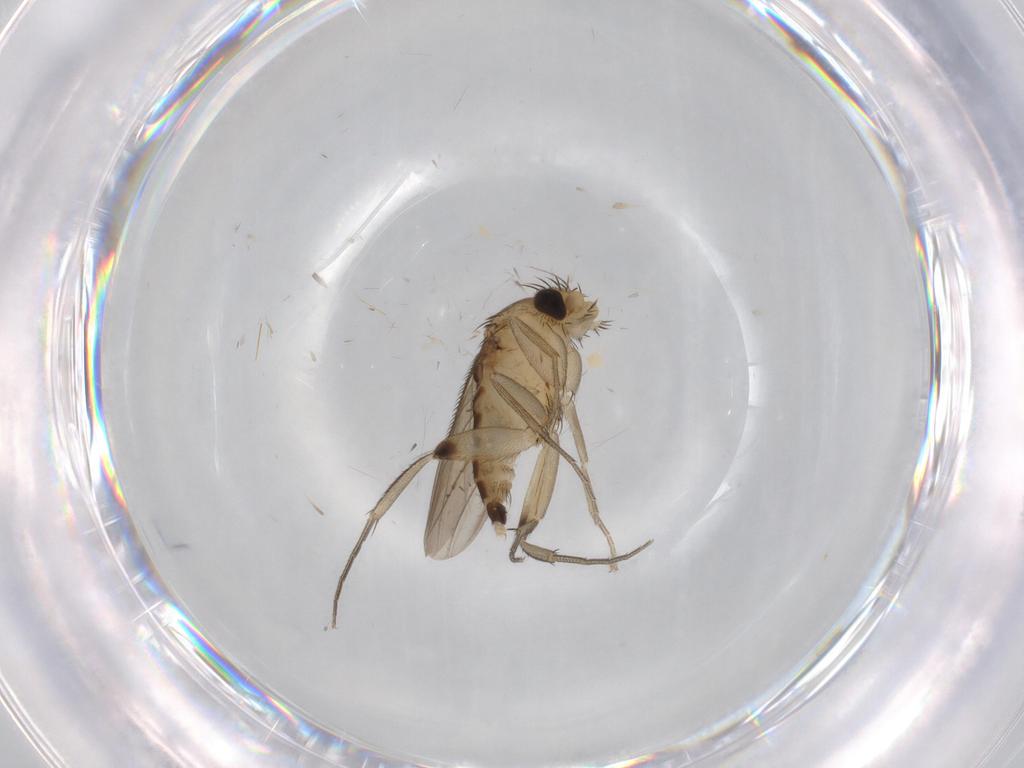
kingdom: Animalia
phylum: Arthropoda
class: Insecta
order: Diptera
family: Phoridae
